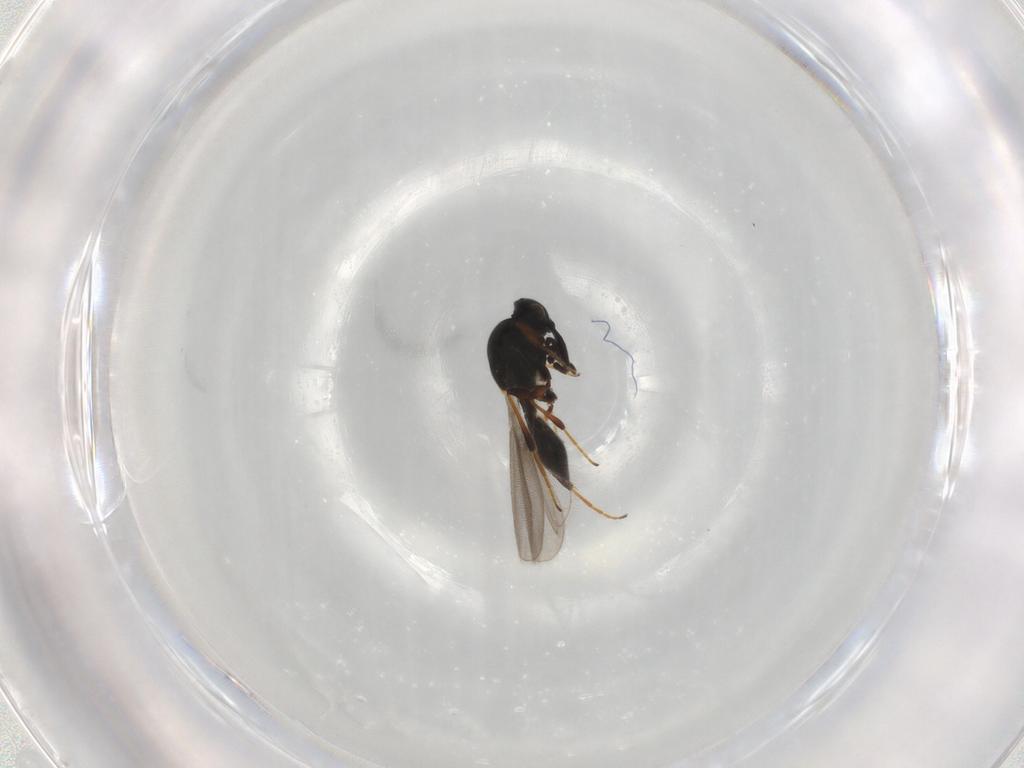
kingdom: Animalia
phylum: Arthropoda
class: Insecta
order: Hymenoptera
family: Platygastridae
